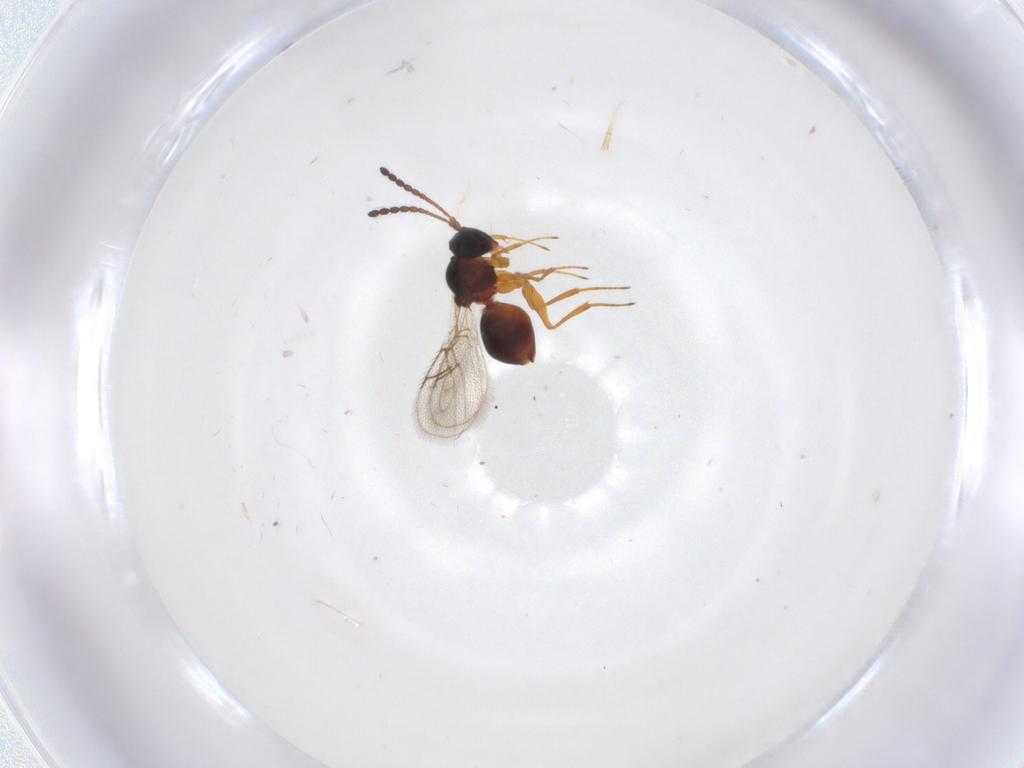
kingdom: Animalia
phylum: Arthropoda
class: Insecta
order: Hymenoptera
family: Figitidae
